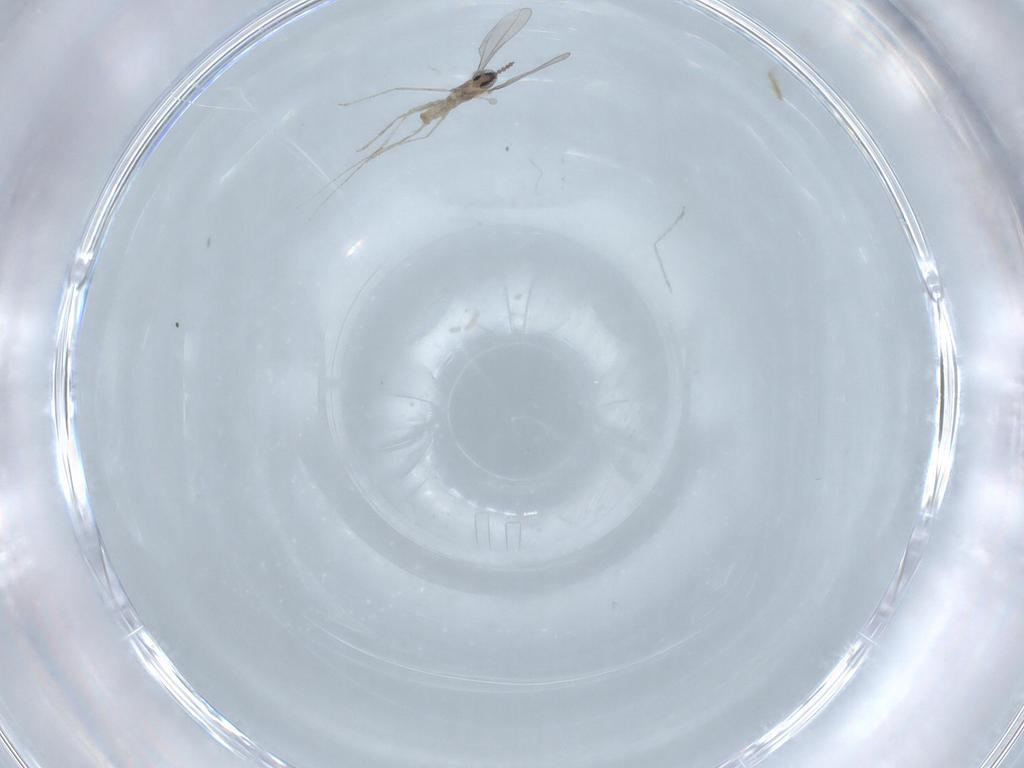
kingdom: Animalia
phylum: Arthropoda
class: Insecta
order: Diptera
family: Cecidomyiidae
